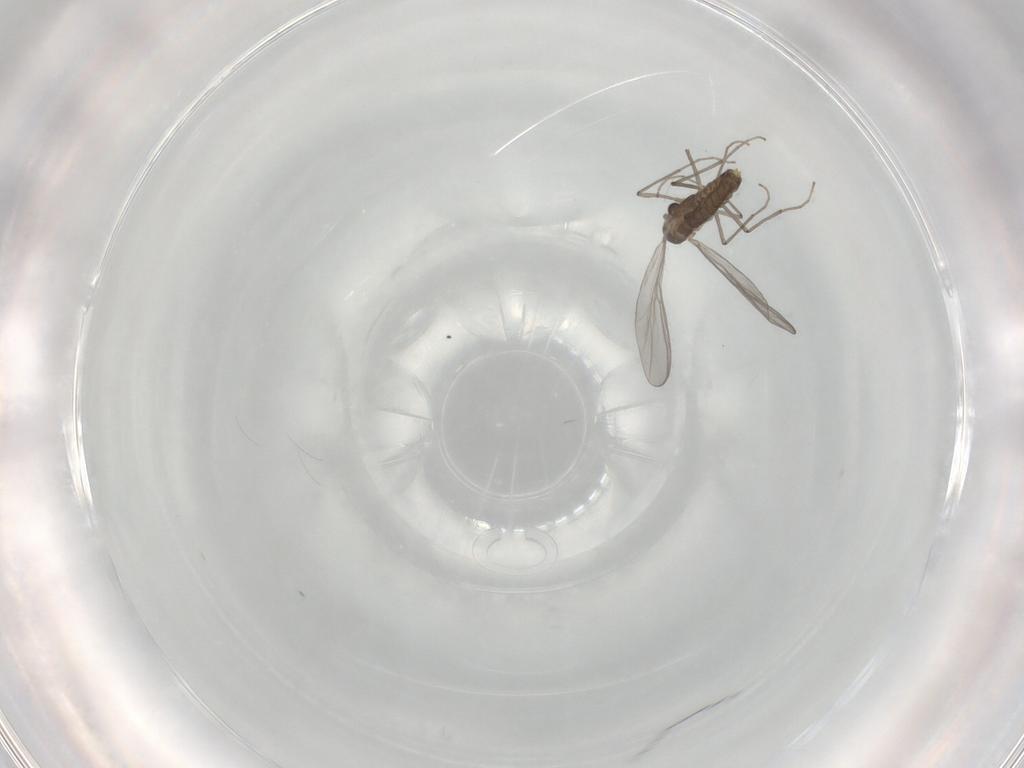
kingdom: Animalia
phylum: Arthropoda
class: Insecta
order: Diptera
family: Chironomidae
